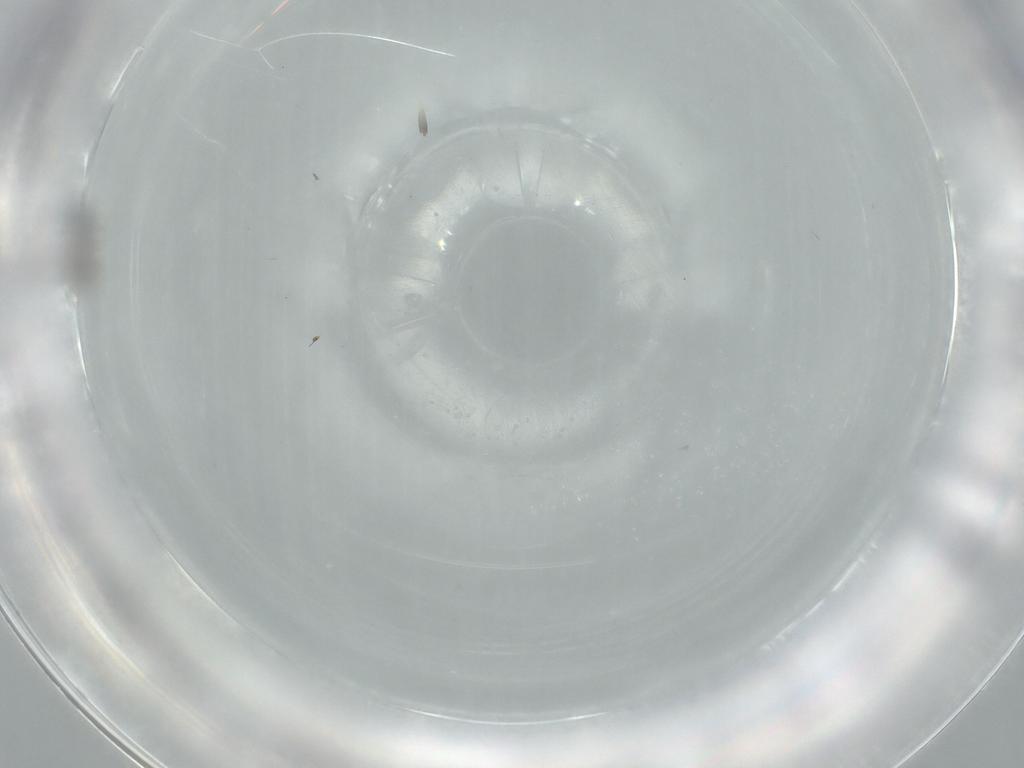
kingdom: Animalia
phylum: Arthropoda
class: Insecta
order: Diptera
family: Cecidomyiidae
